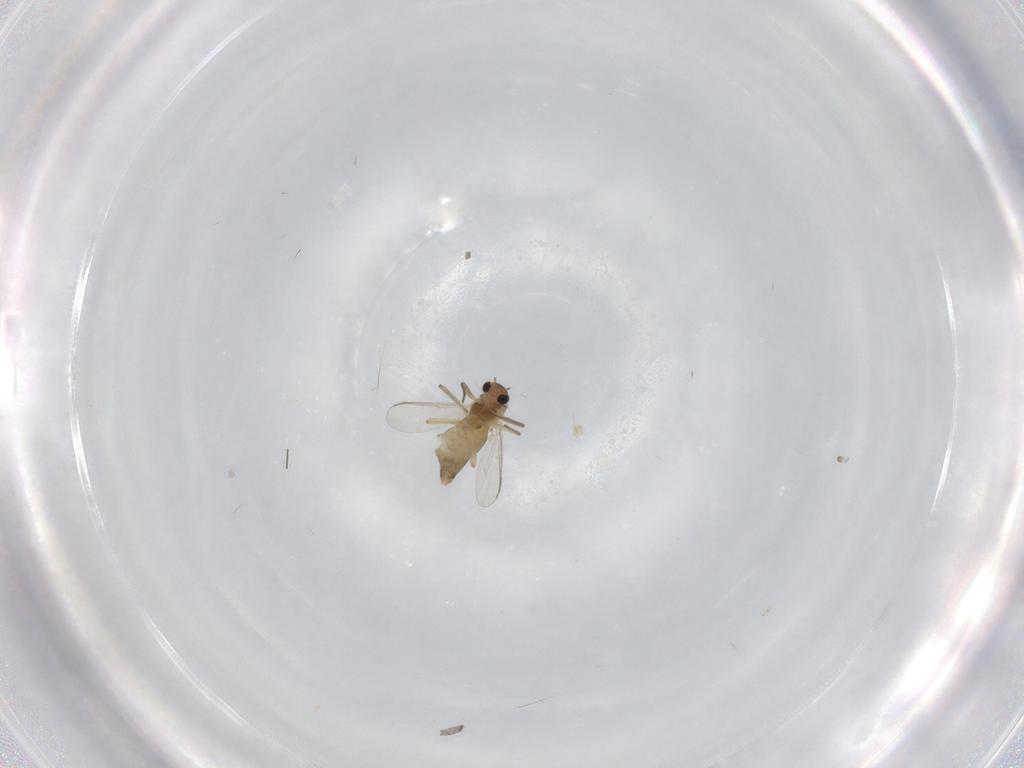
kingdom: Animalia
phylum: Arthropoda
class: Insecta
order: Diptera
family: Chironomidae
